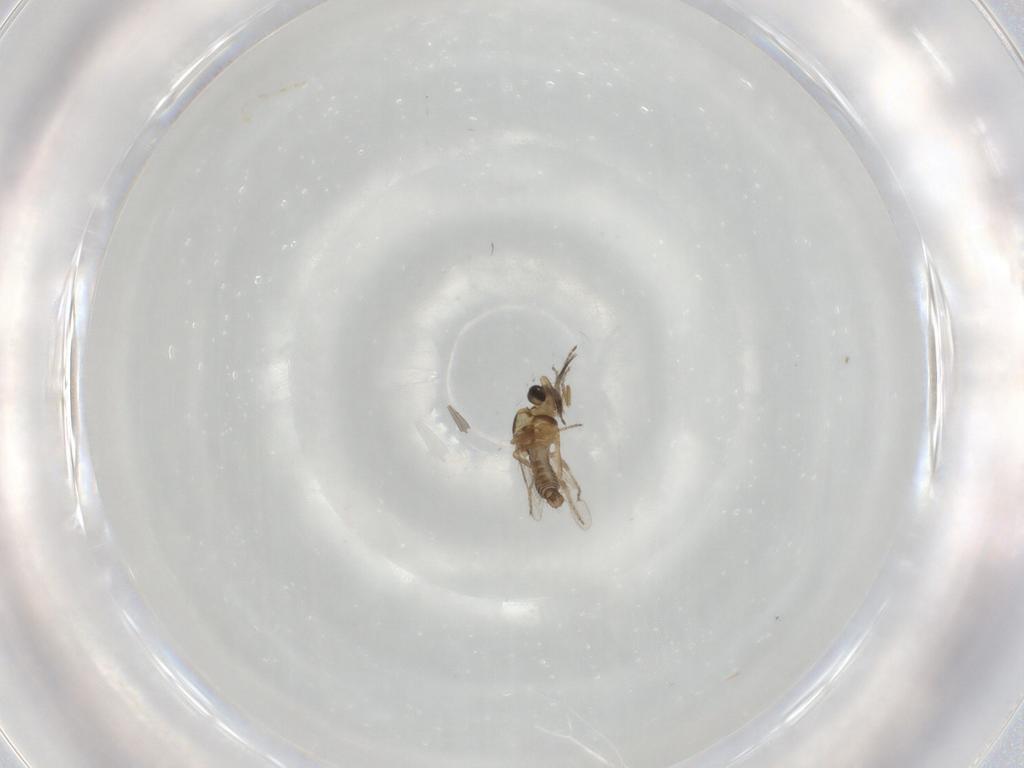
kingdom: Animalia
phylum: Arthropoda
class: Insecta
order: Diptera
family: Ceratopogonidae
